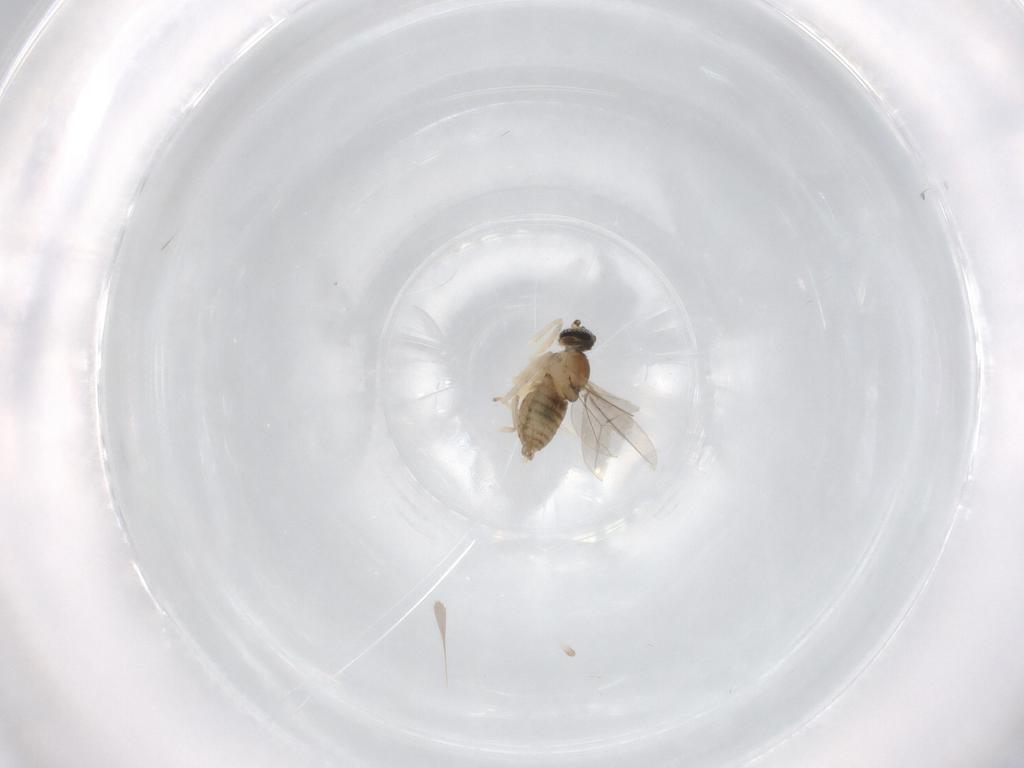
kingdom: Animalia
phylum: Arthropoda
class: Insecta
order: Diptera
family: Cecidomyiidae
